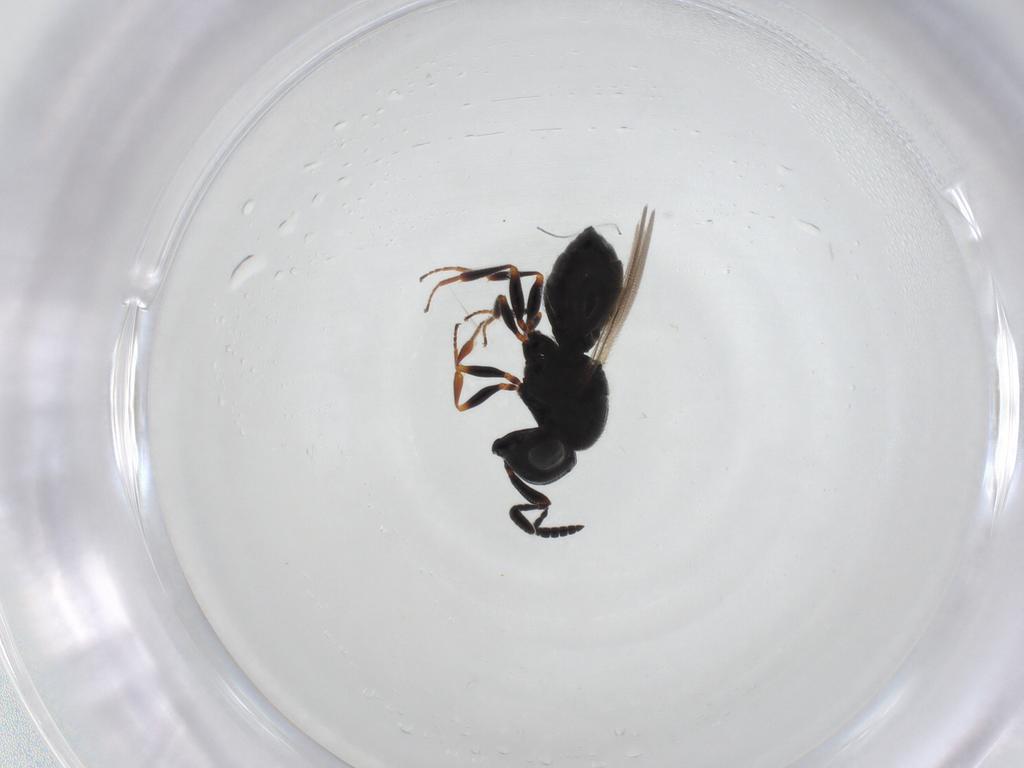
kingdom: Animalia
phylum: Arthropoda
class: Insecta
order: Hymenoptera
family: Scelionidae
